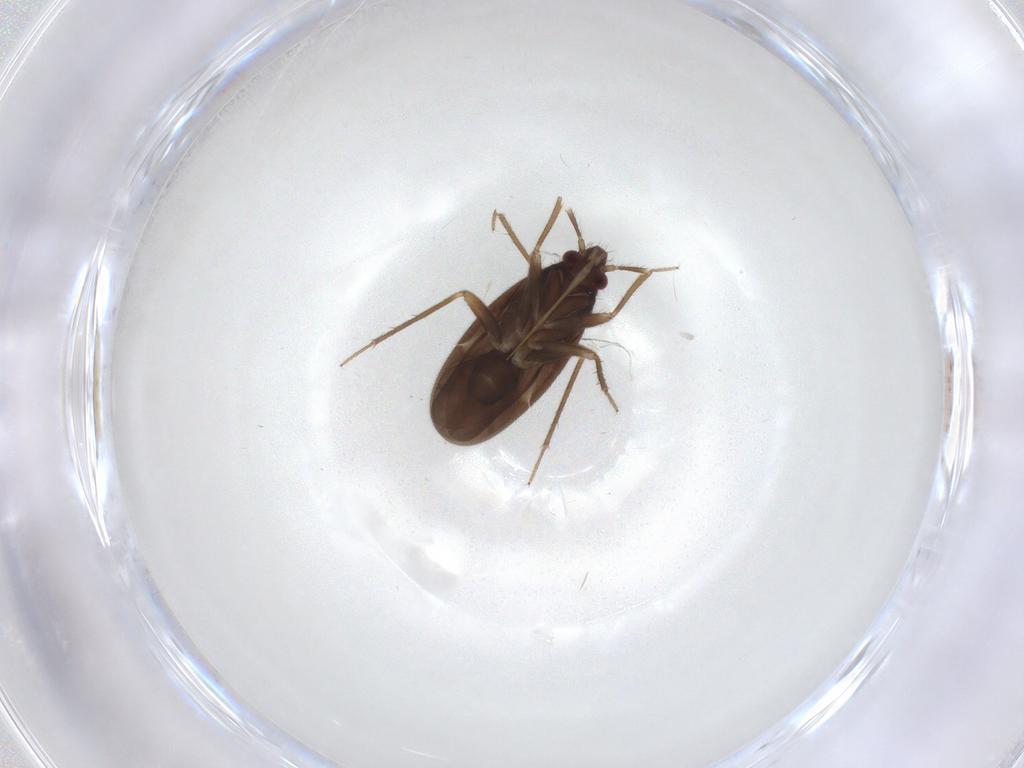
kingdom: Animalia
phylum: Arthropoda
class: Insecta
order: Hemiptera
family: Ceratocombidae
